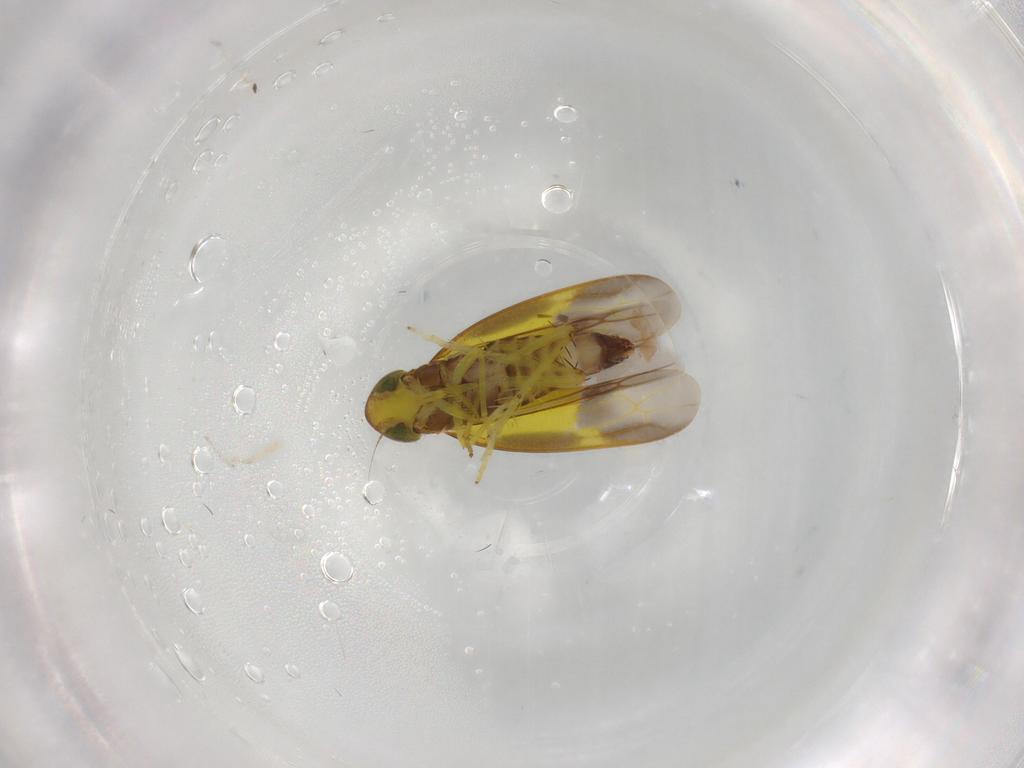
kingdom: Animalia
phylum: Arthropoda
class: Insecta
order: Hemiptera
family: Cicadellidae
